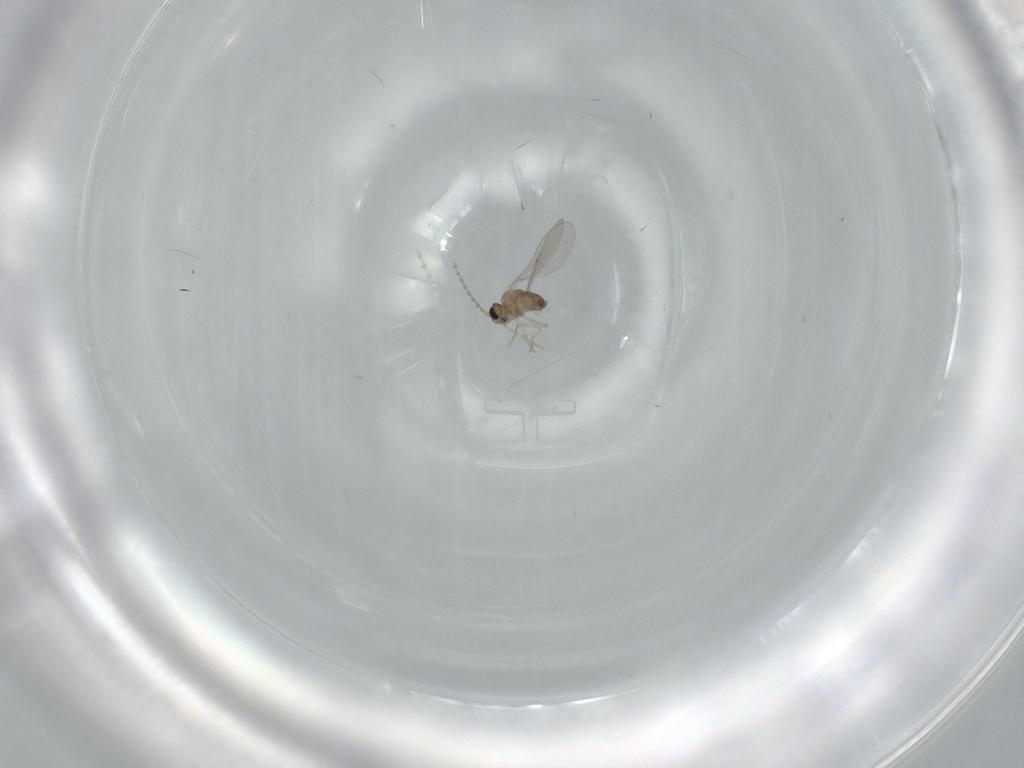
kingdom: Animalia
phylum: Arthropoda
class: Insecta
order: Diptera
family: Cecidomyiidae
